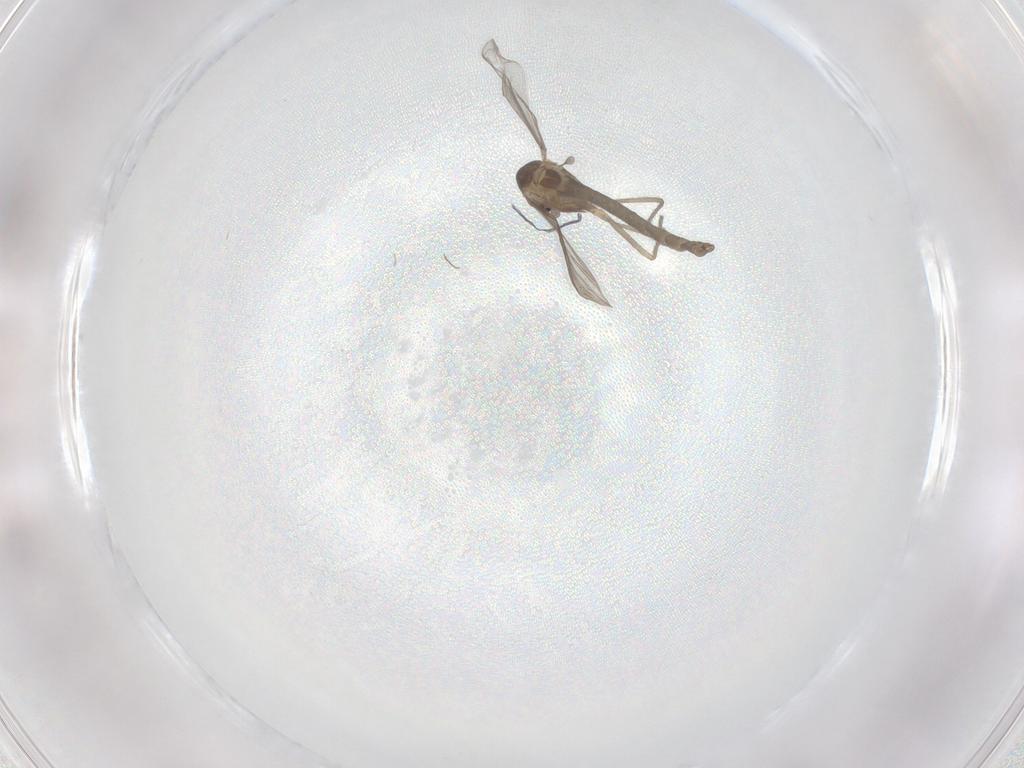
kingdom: Animalia
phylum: Arthropoda
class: Insecta
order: Diptera
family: Chironomidae
